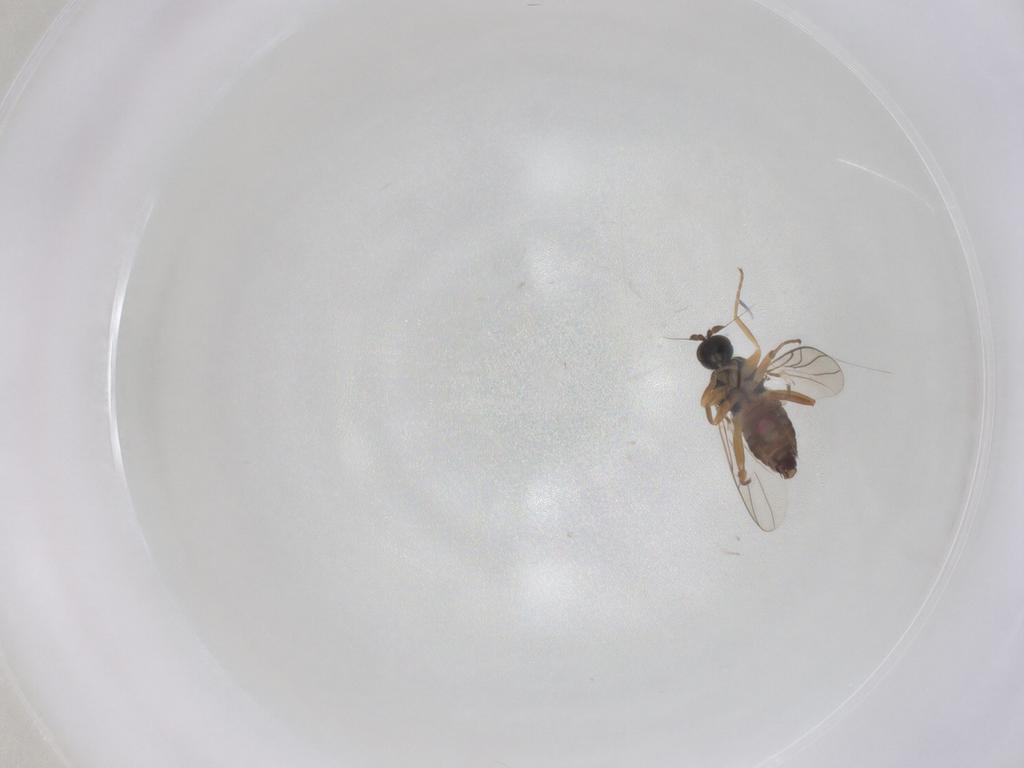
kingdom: Animalia
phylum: Arthropoda
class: Insecta
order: Diptera
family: Hybotidae
